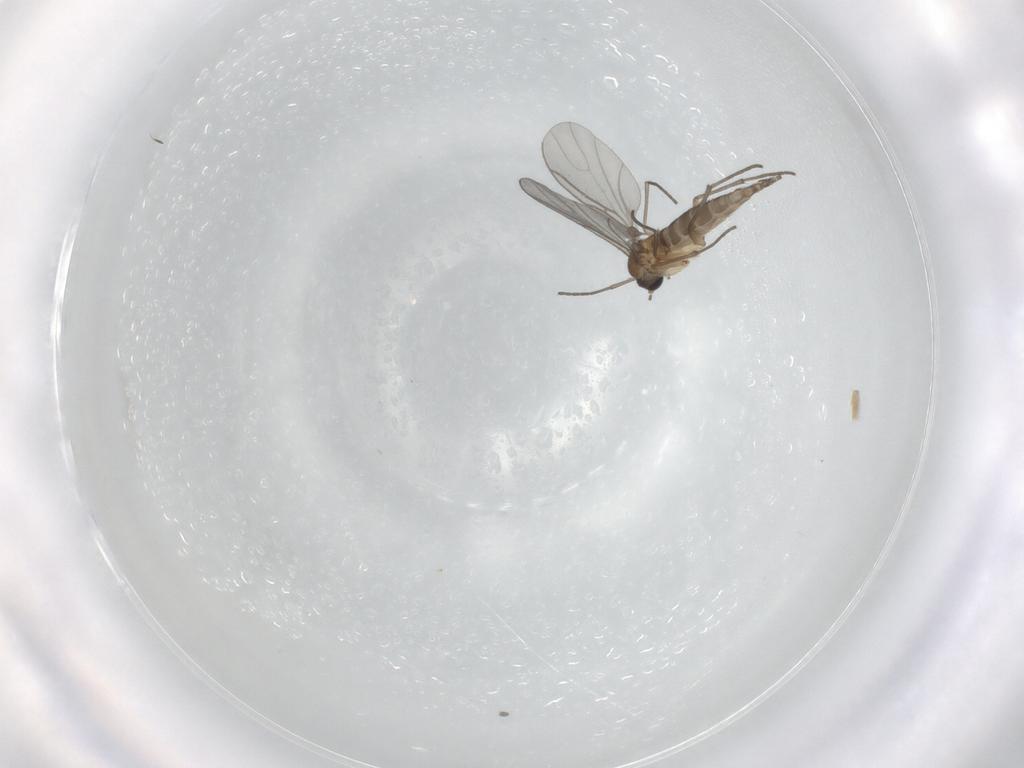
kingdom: Animalia
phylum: Arthropoda
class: Insecta
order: Diptera
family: Sciaridae
